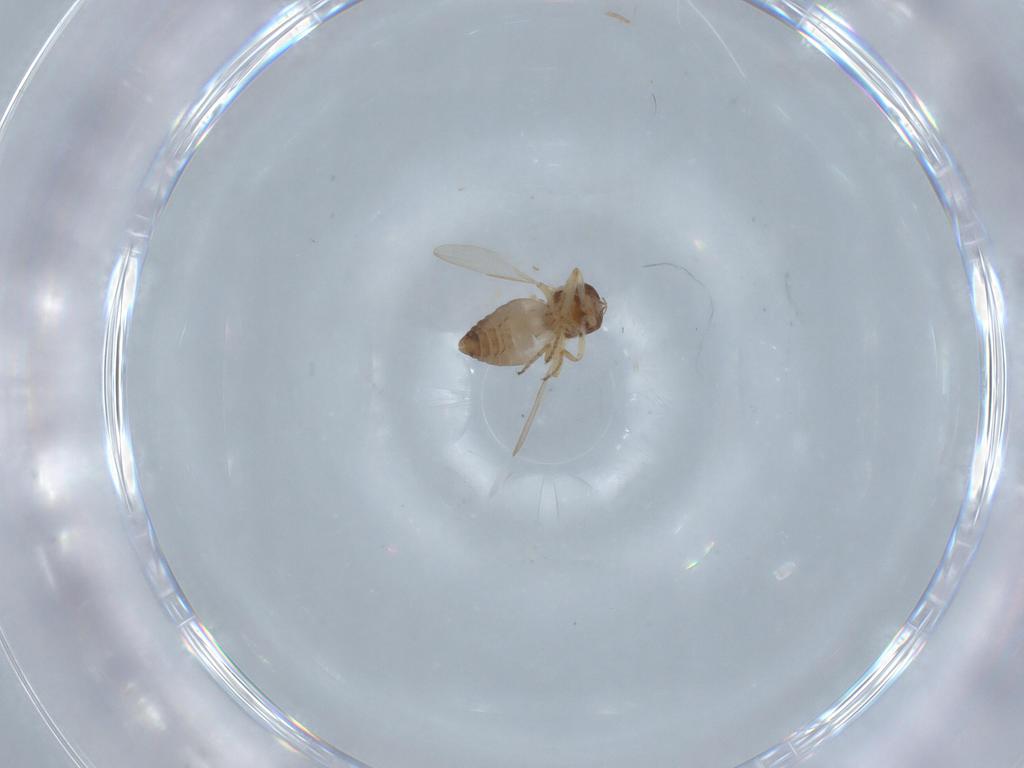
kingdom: Animalia
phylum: Arthropoda
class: Insecta
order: Diptera
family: Ceratopogonidae
